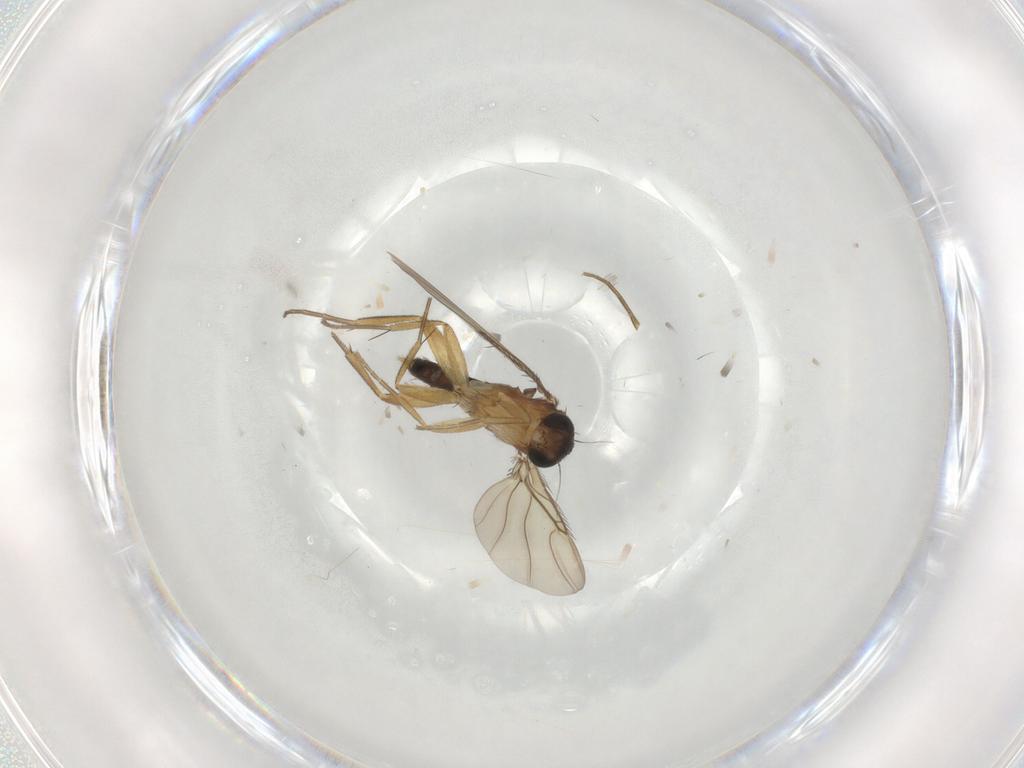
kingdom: Animalia
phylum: Arthropoda
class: Insecta
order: Diptera
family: Phoridae
